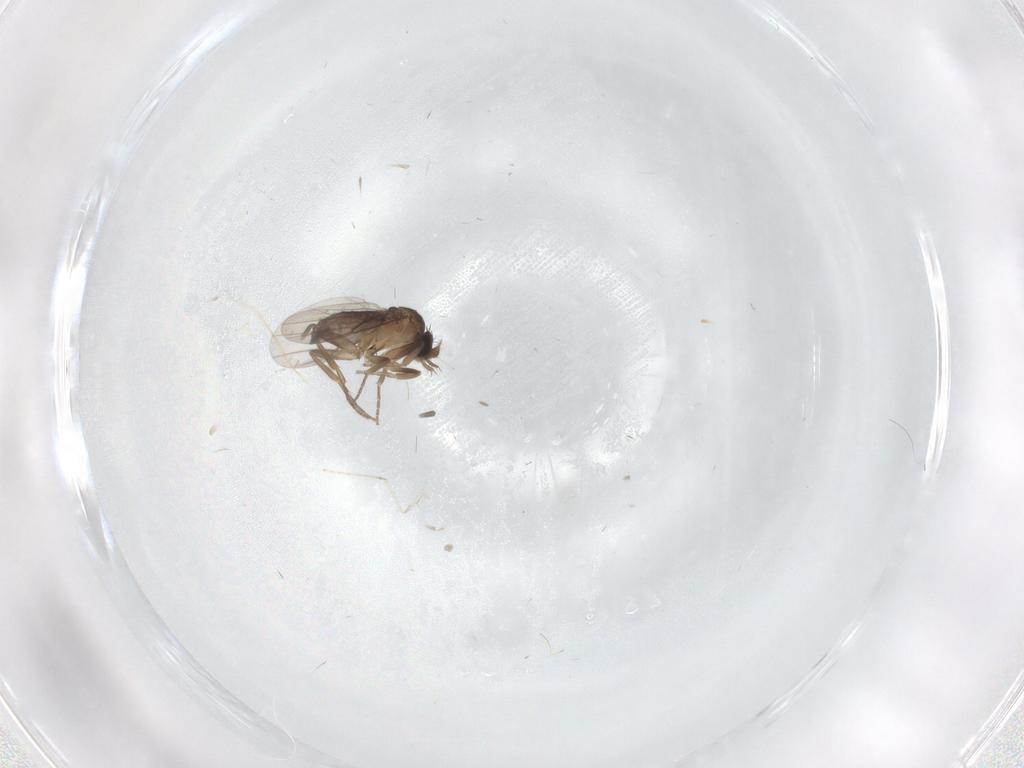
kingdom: Animalia
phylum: Arthropoda
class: Insecta
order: Diptera
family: Phoridae
